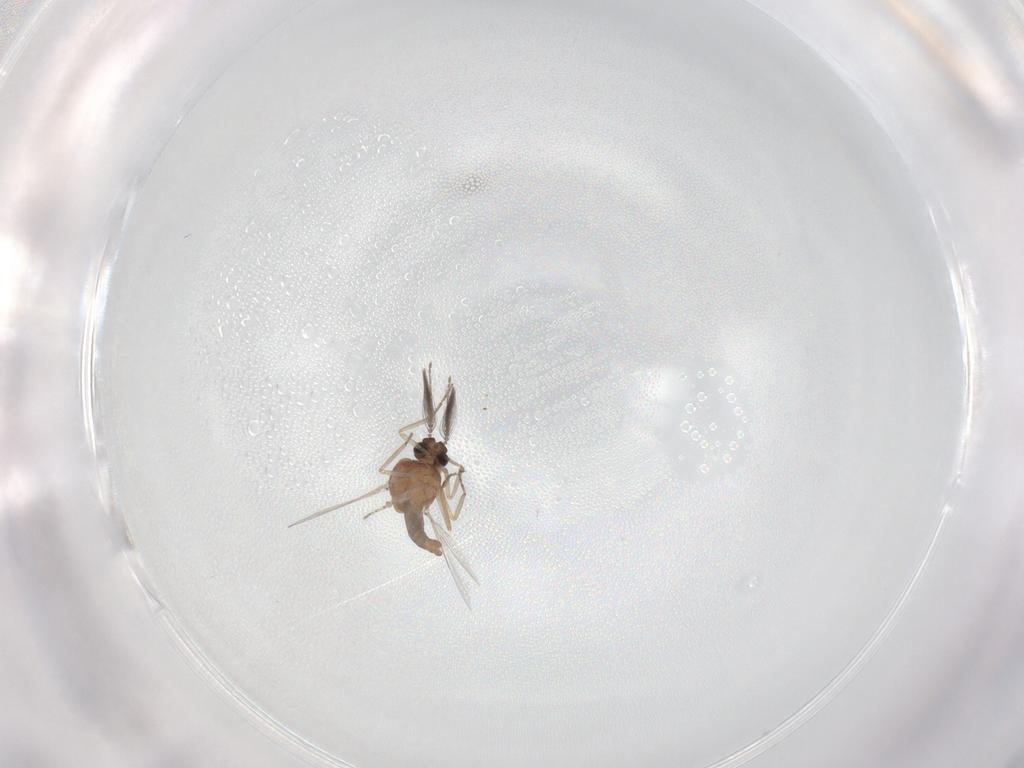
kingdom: Animalia
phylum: Arthropoda
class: Insecta
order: Diptera
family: Ceratopogonidae
